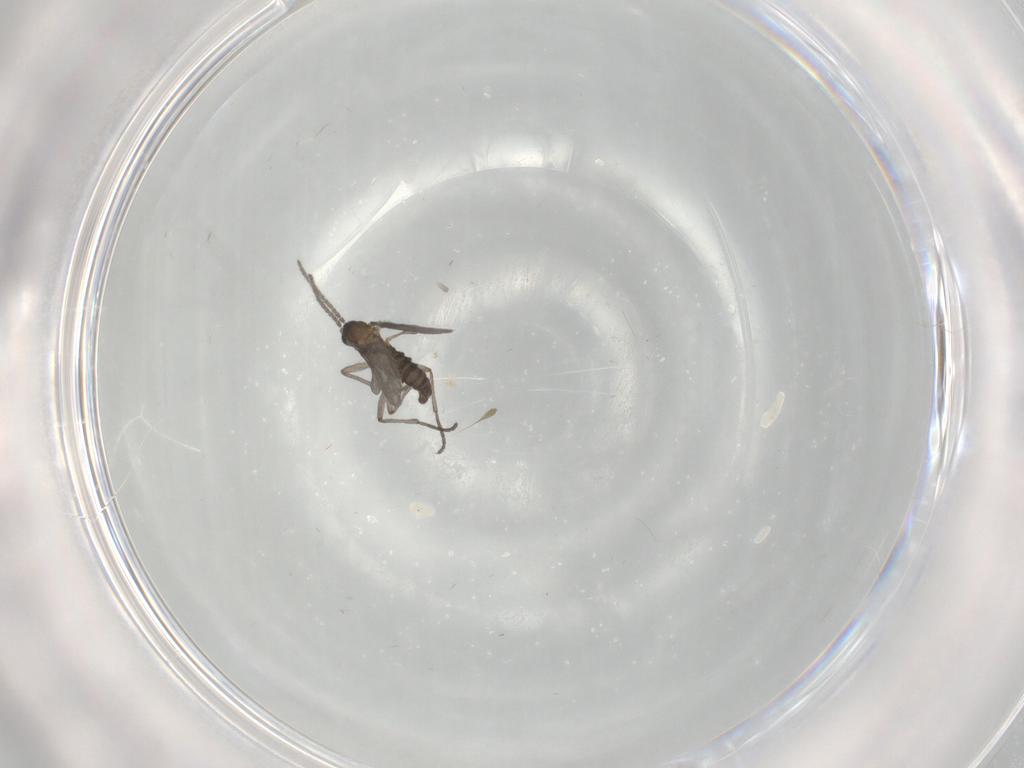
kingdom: Animalia
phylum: Arthropoda
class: Insecta
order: Diptera
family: Sciaridae
